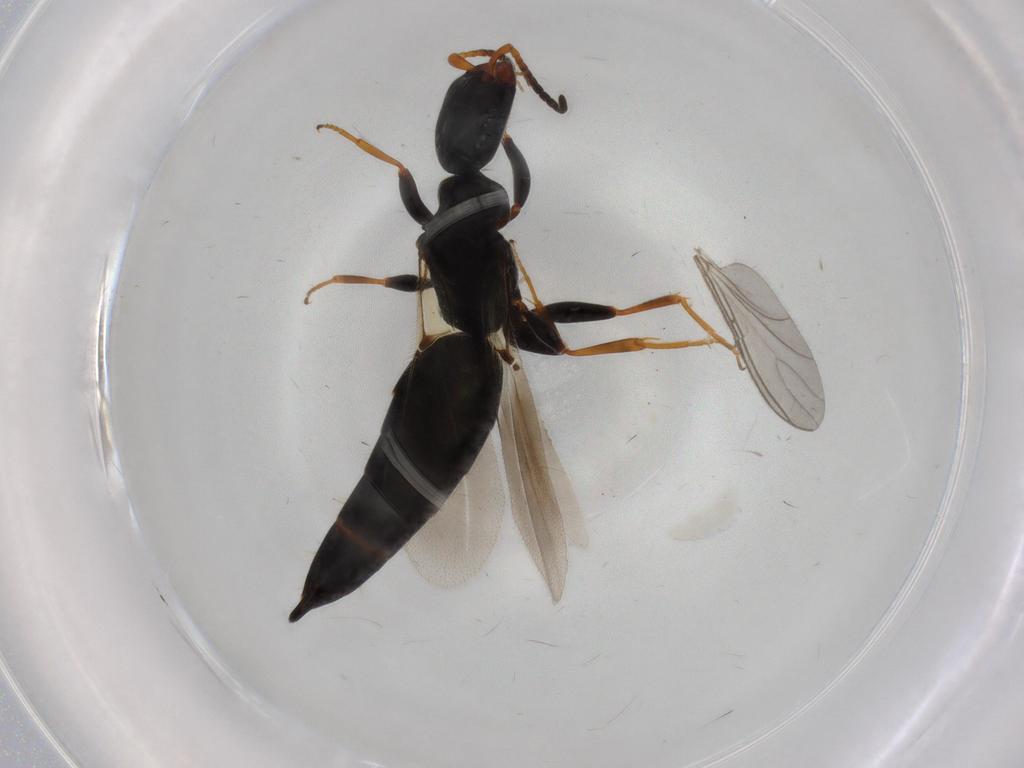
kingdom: Animalia
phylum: Arthropoda
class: Insecta
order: Hymenoptera
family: Bethylidae
